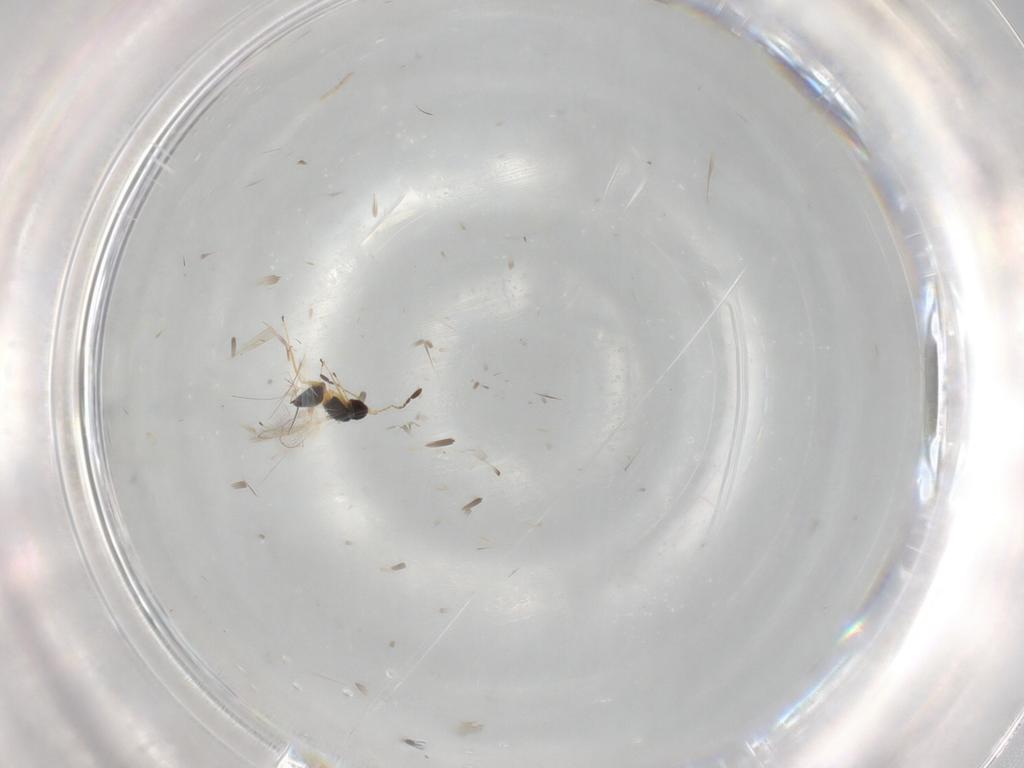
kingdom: Animalia
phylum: Arthropoda
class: Insecta
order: Hymenoptera
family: Mymaridae
